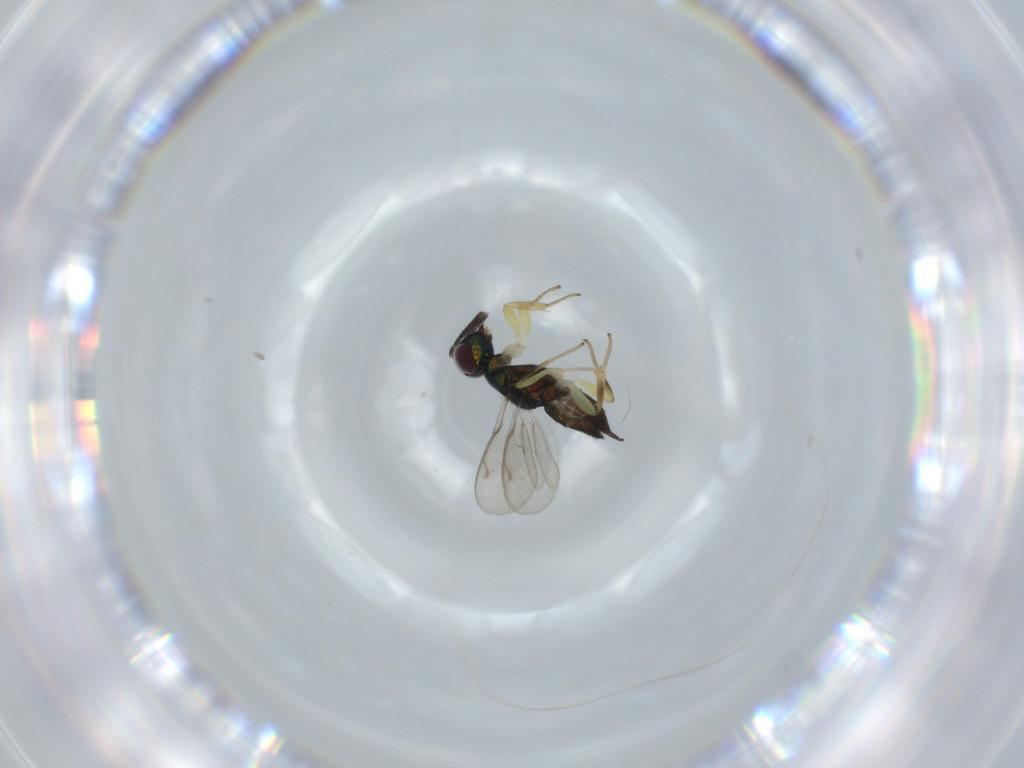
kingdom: Animalia
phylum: Arthropoda
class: Insecta
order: Hymenoptera
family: Eupelmidae
